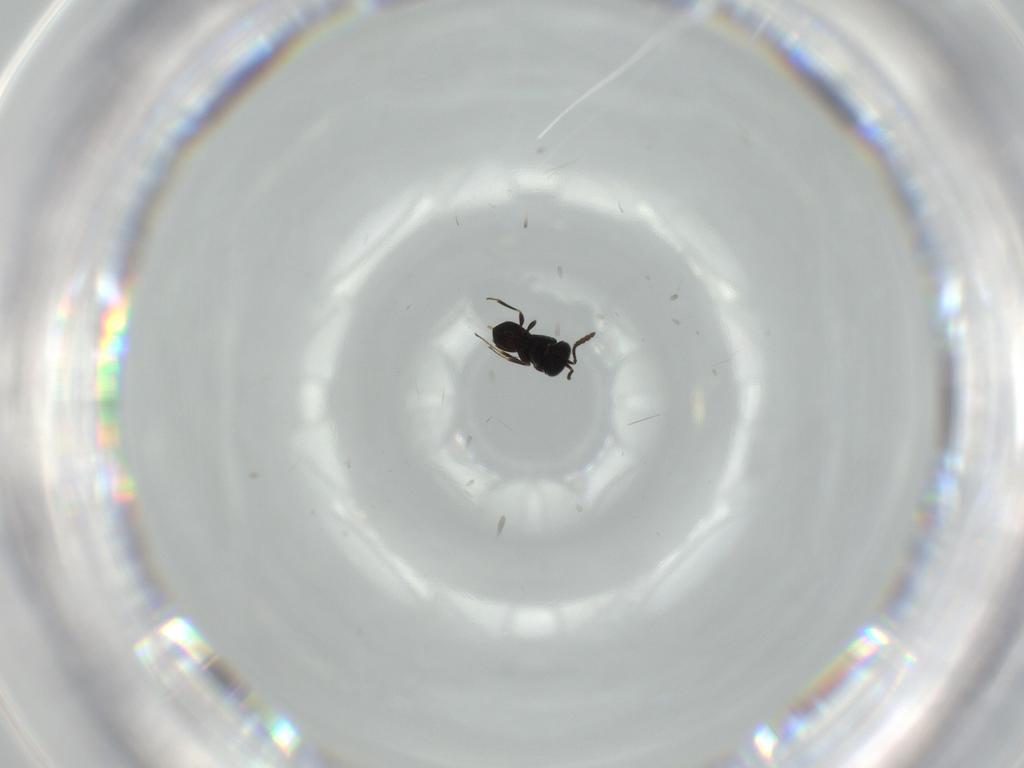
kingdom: Animalia
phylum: Arthropoda
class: Insecta
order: Hymenoptera
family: Scelionidae
